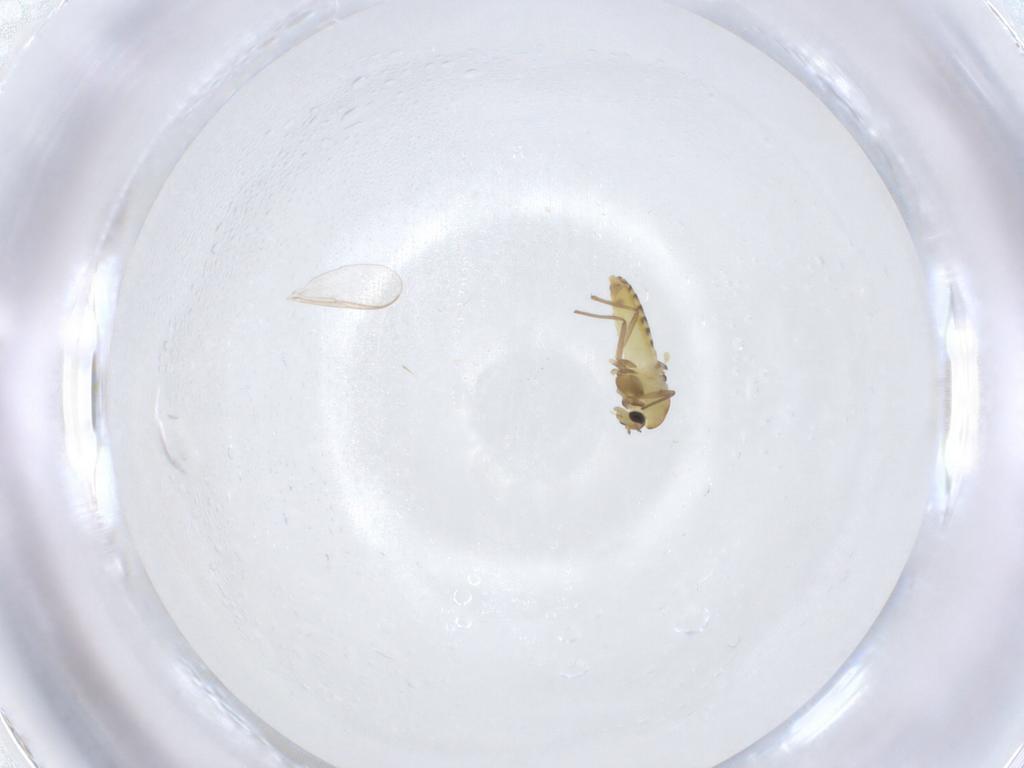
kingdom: Animalia
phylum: Arthropoda
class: Insecta
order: Diptera
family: Chironomidae
